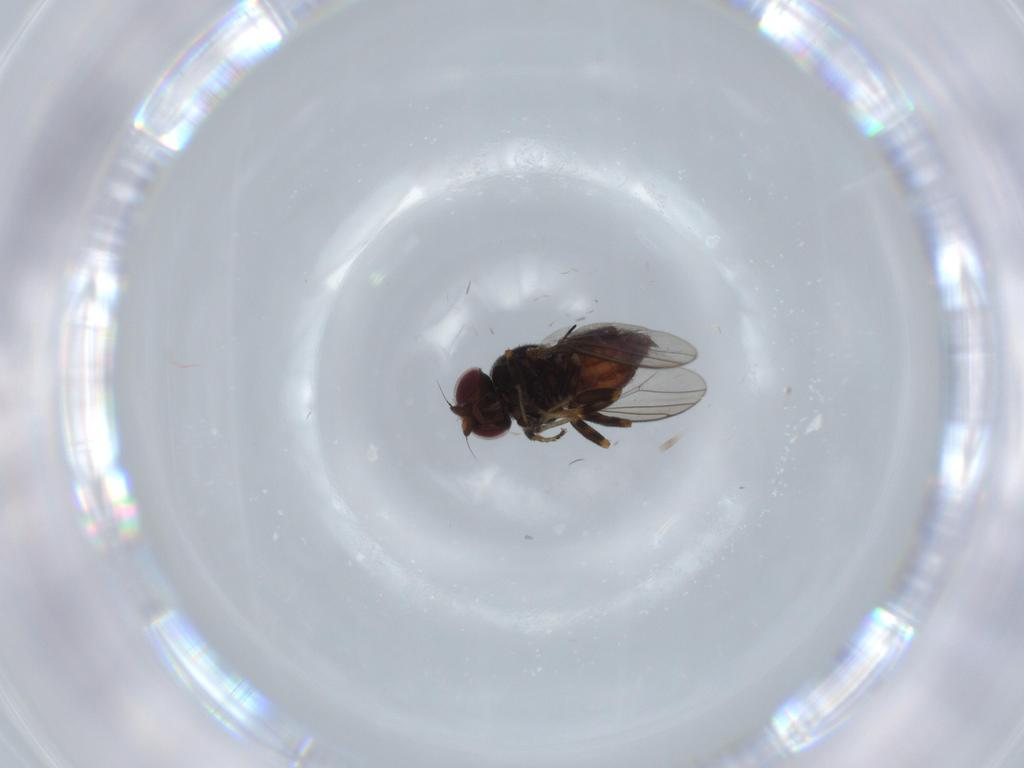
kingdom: Animalia
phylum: Arthropoda
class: Insecta
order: Diptera
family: Chloropidae
